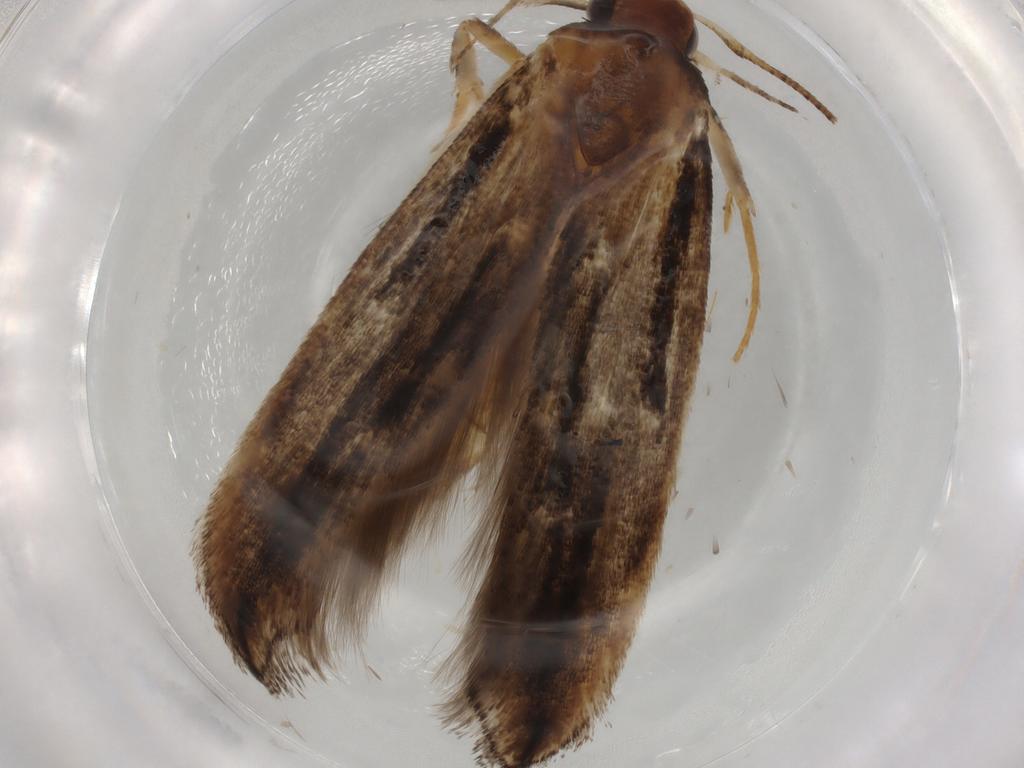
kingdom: Animalia
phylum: Arthropoda
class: Insecta
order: Lepidoptera
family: Tortricidae
